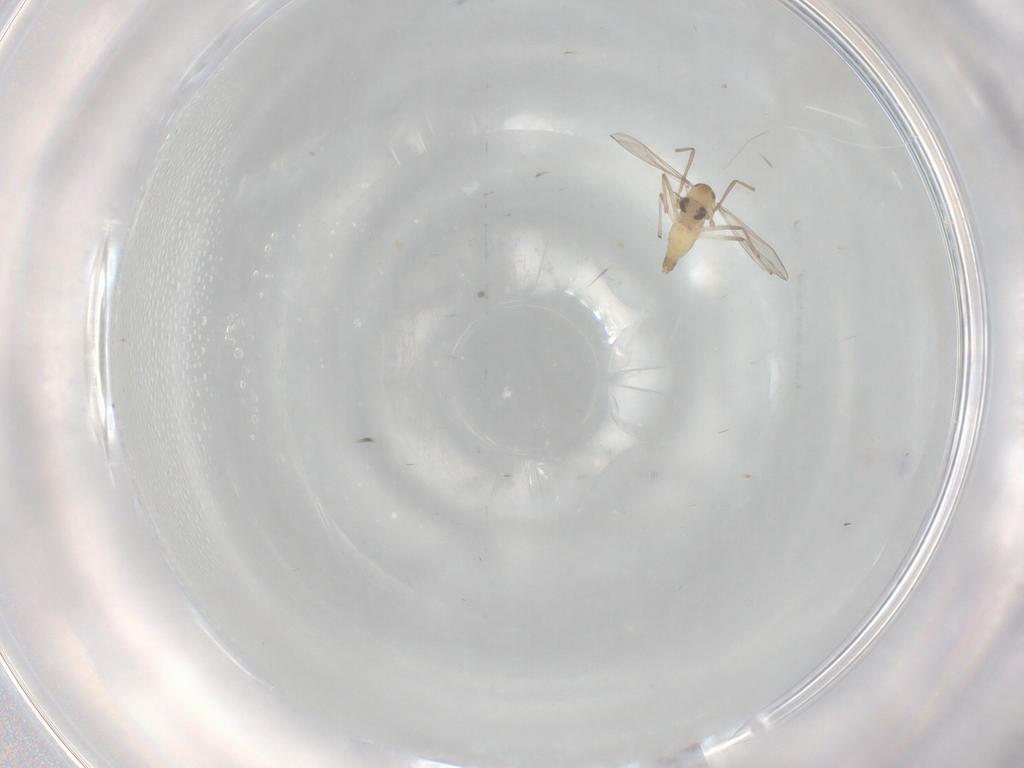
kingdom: Animalia
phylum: Arthropoda
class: Insecta
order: Diptera
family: Chironomidae
